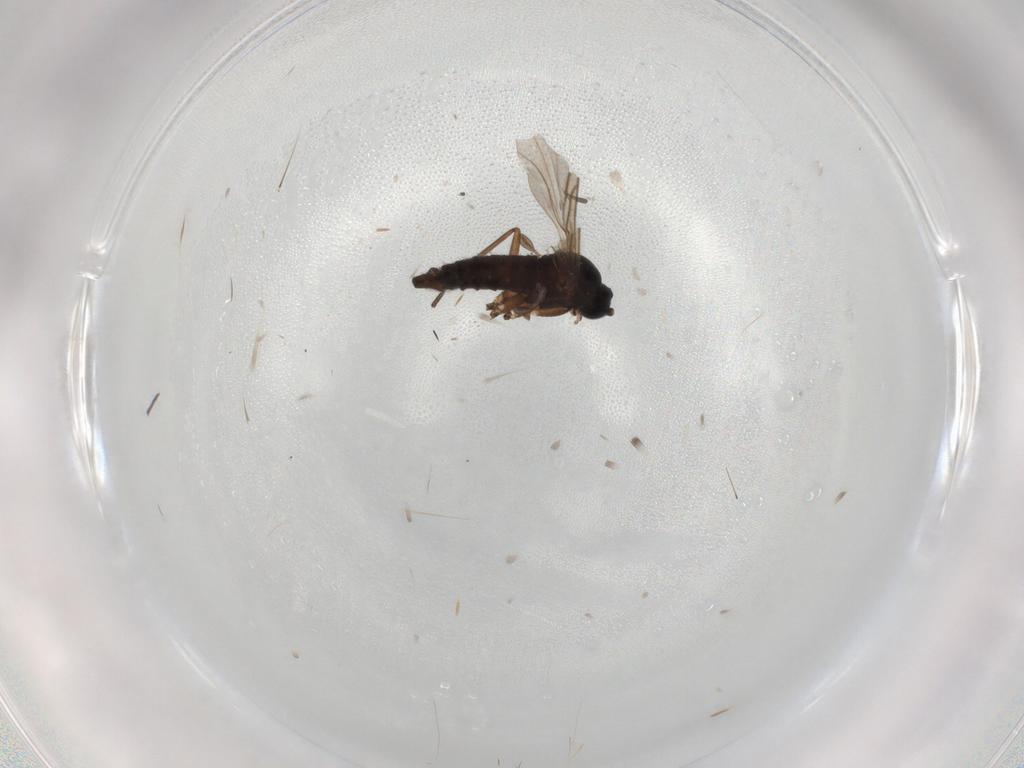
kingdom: Animalia
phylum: Arthropoda
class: Insecta
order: Diptera
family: Sciaridae
